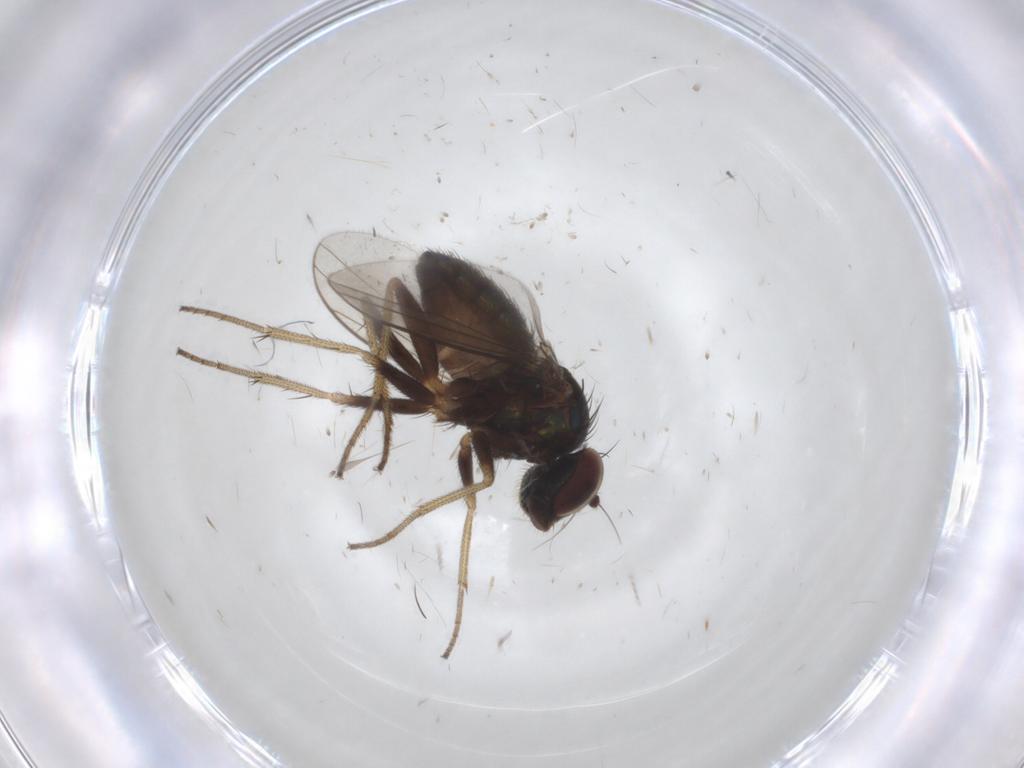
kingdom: Animalia
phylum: Arthropoda
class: Insecta
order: Diptera
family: Dolichopodidae
